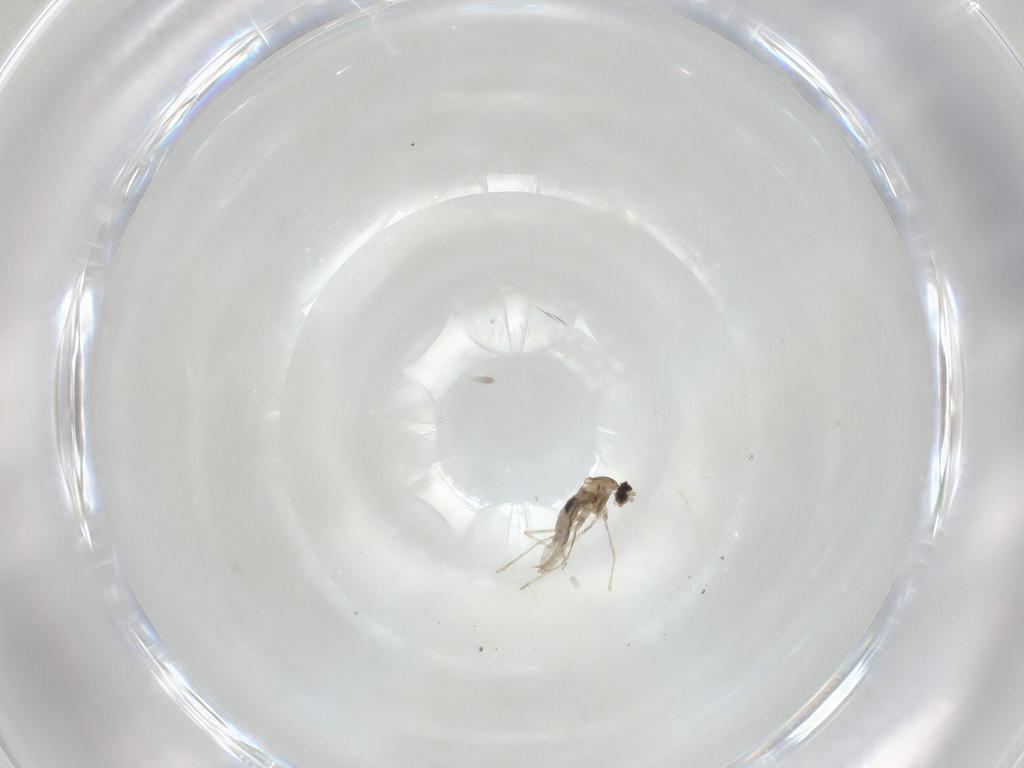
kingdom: Animalia
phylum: Arthropoda
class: Insecta
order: Diptera
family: Cecidomyiidae
